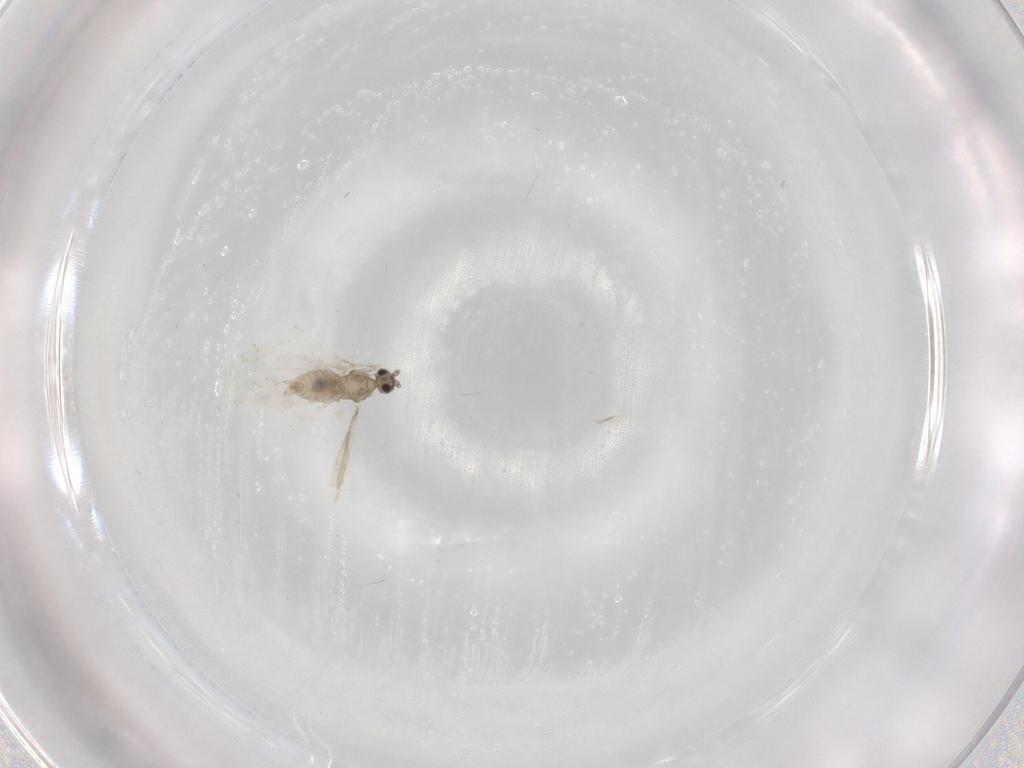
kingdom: Animalia
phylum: Arthropoda
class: Insecta
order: Diptera
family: Cecidomyiidae
